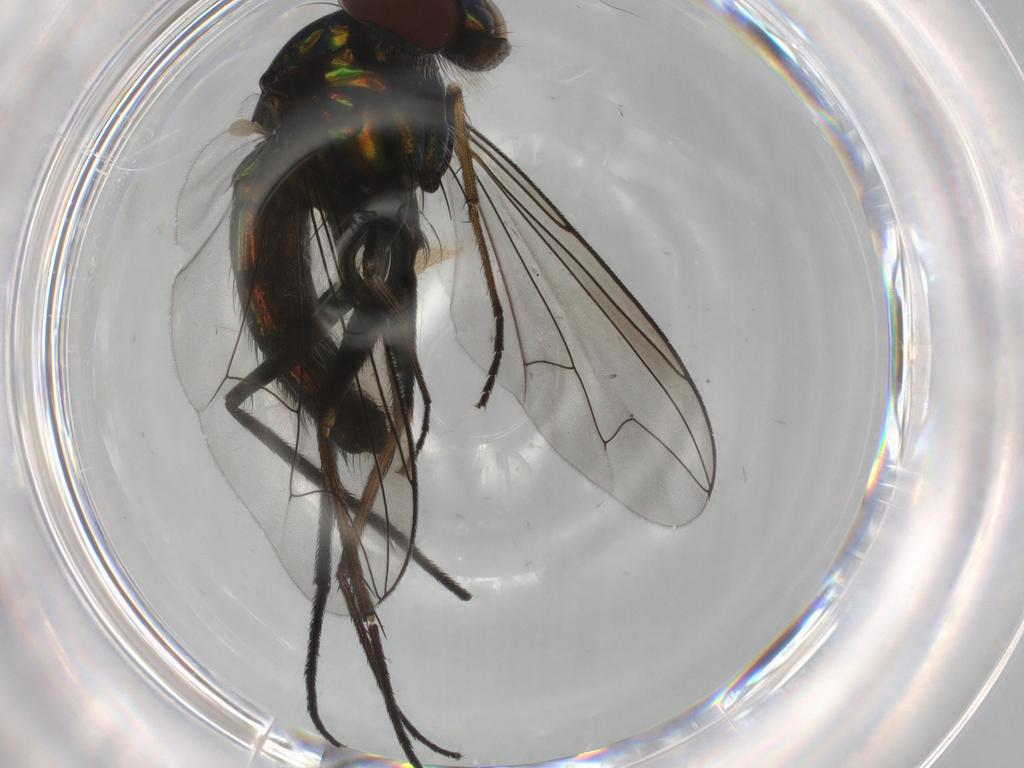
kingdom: Animalia
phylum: Arthropoda
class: Insecta
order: Diptera
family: Dolichopodidae
